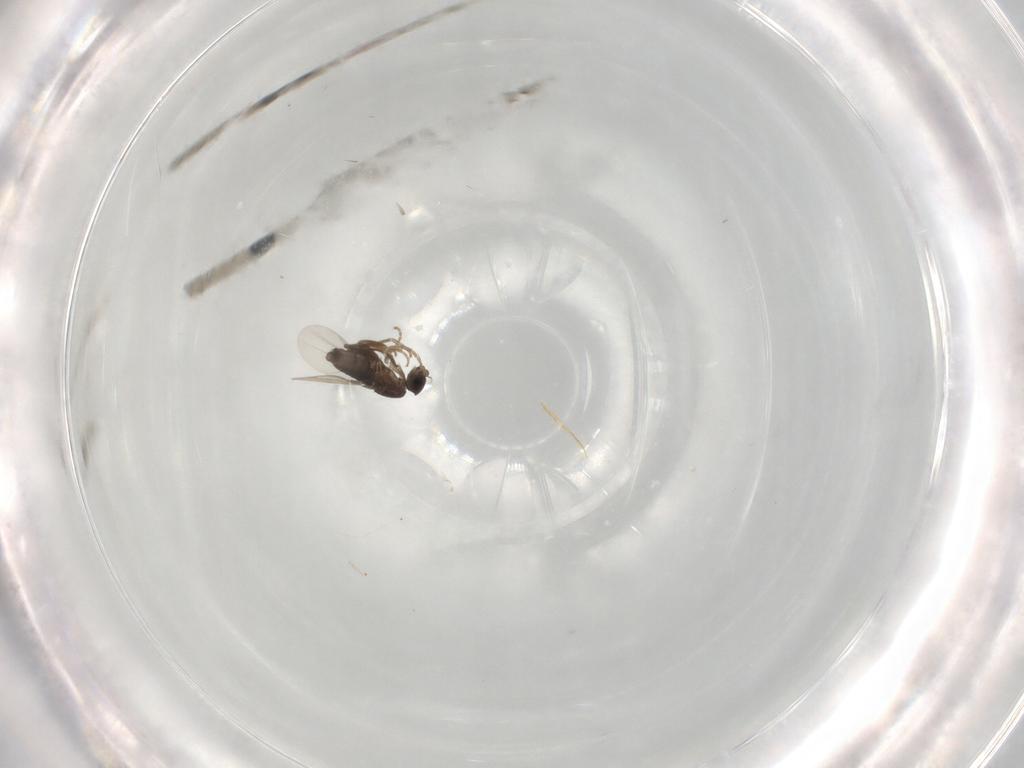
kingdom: Animalia
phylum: Arthropoda
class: Insecta
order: Diptera
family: Phoridae
